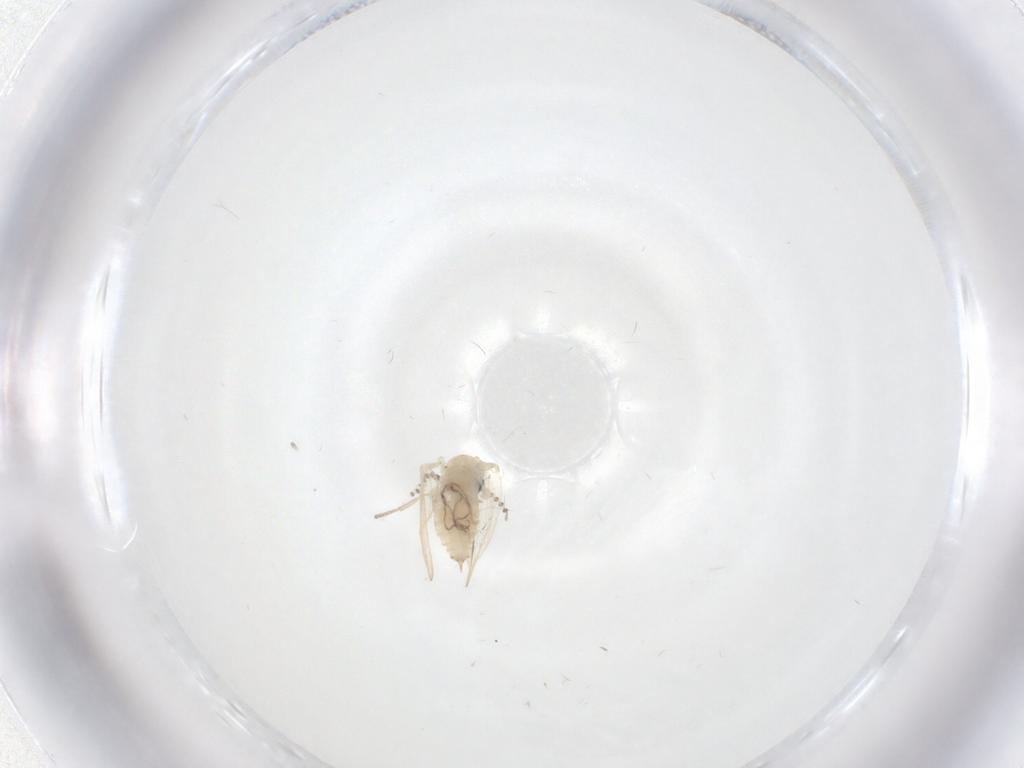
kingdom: Animalia
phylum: Arthropoda
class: Insecta
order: Diptera
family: Psychodidae
